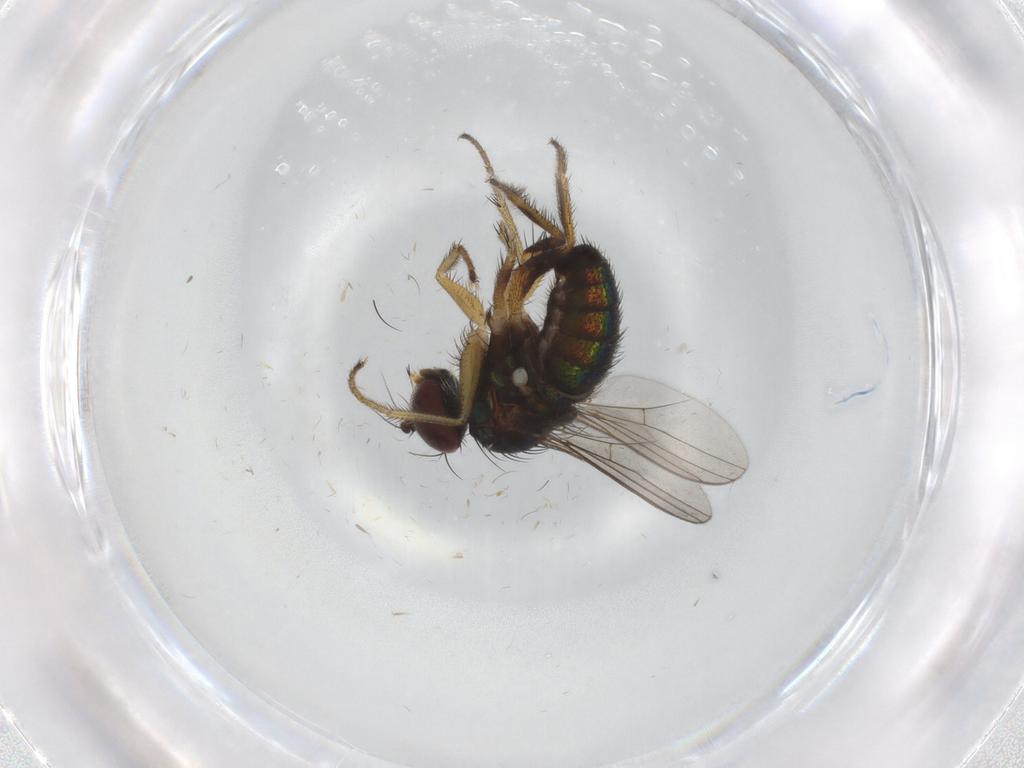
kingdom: Animalia
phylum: Arthropoda
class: Insecta
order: Diptera
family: Dolichopodidae
